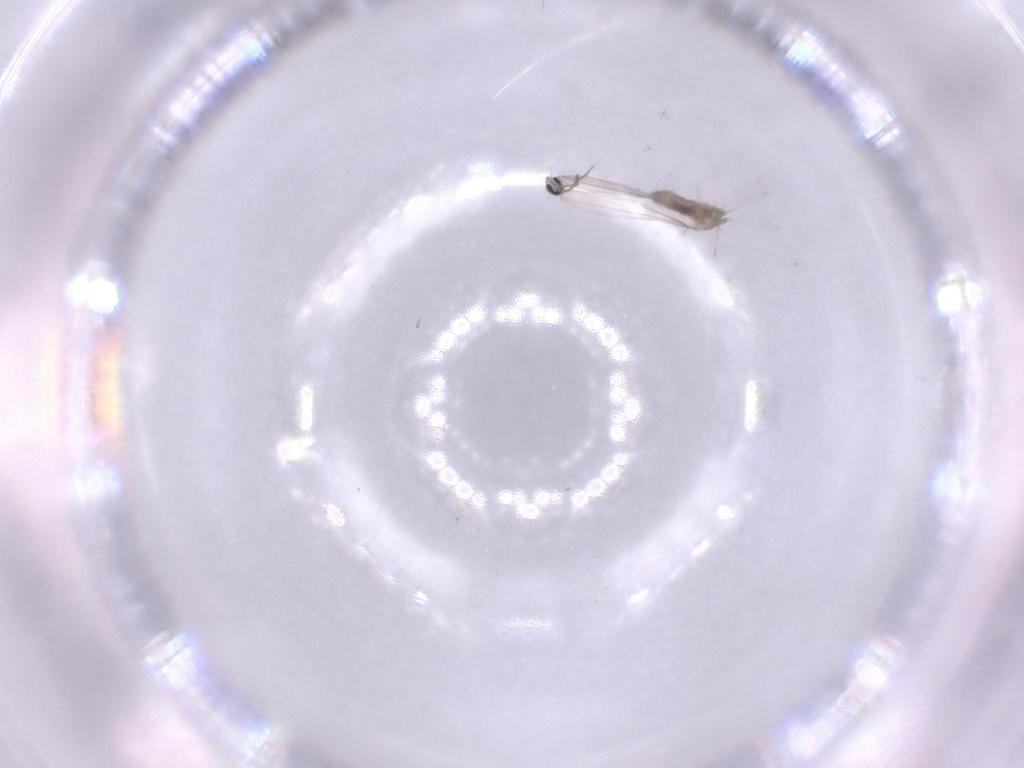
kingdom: Animalia
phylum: Arthropoda
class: Insecta
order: Diptera
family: Cecidomyiidae
